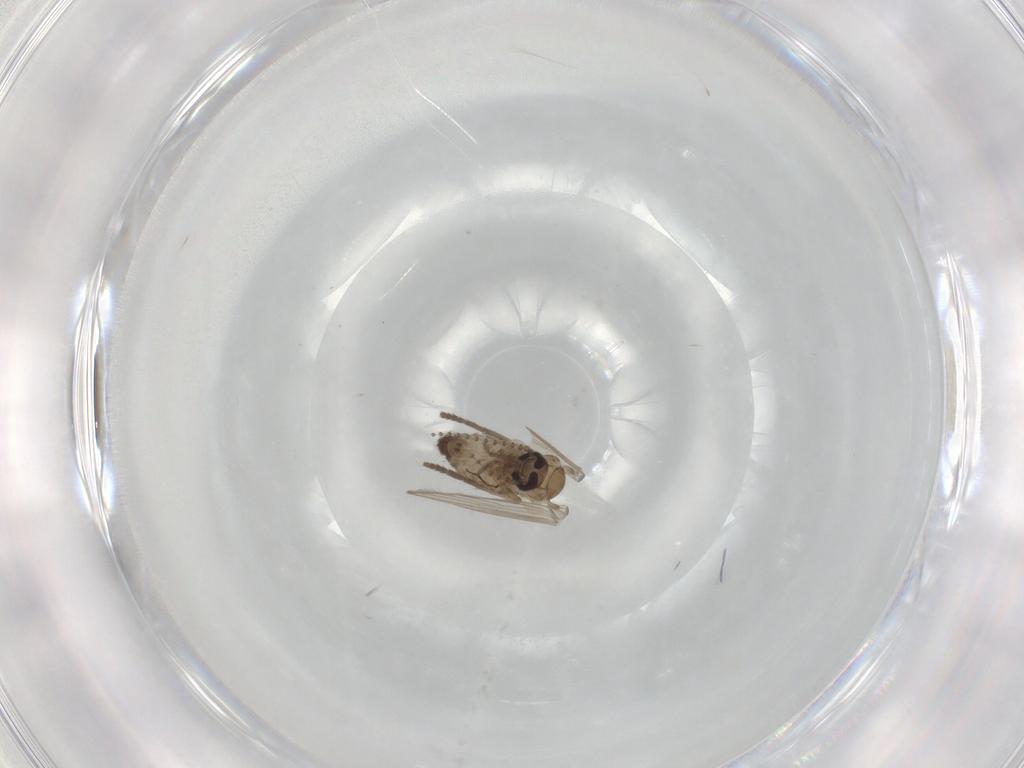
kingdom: Animalia
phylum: Arthropoda
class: Insecta
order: Diptera
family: Psychodidae
